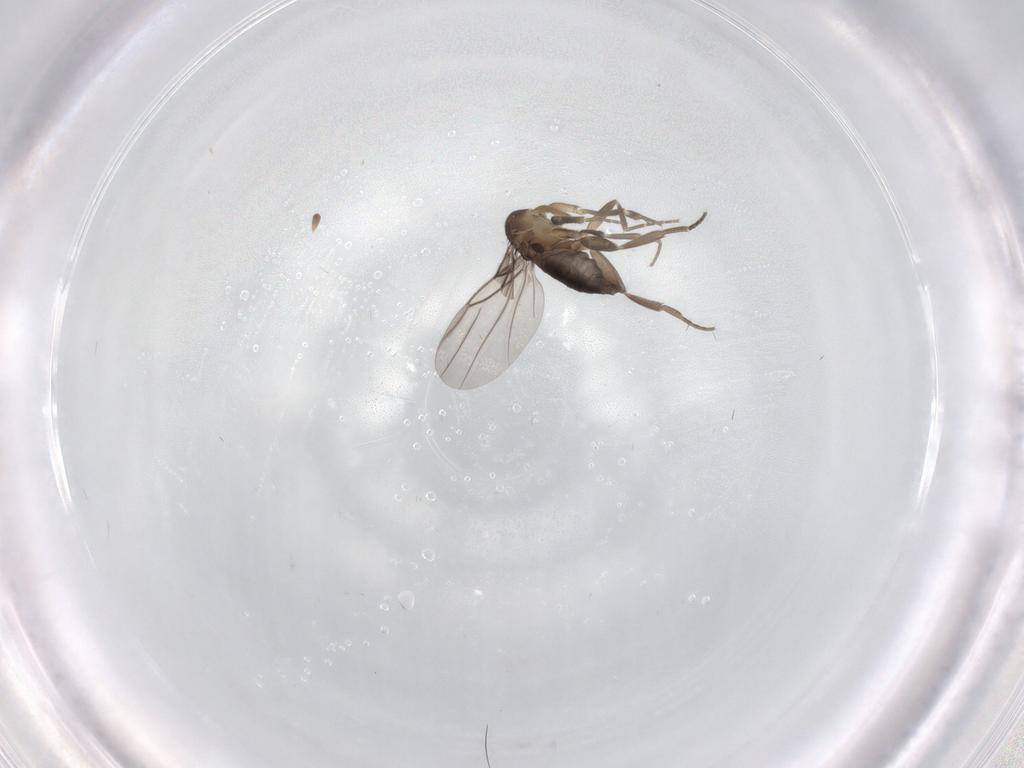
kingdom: Animalia
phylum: Arthropoda
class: Insecta
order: Diptera
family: Phoridae
